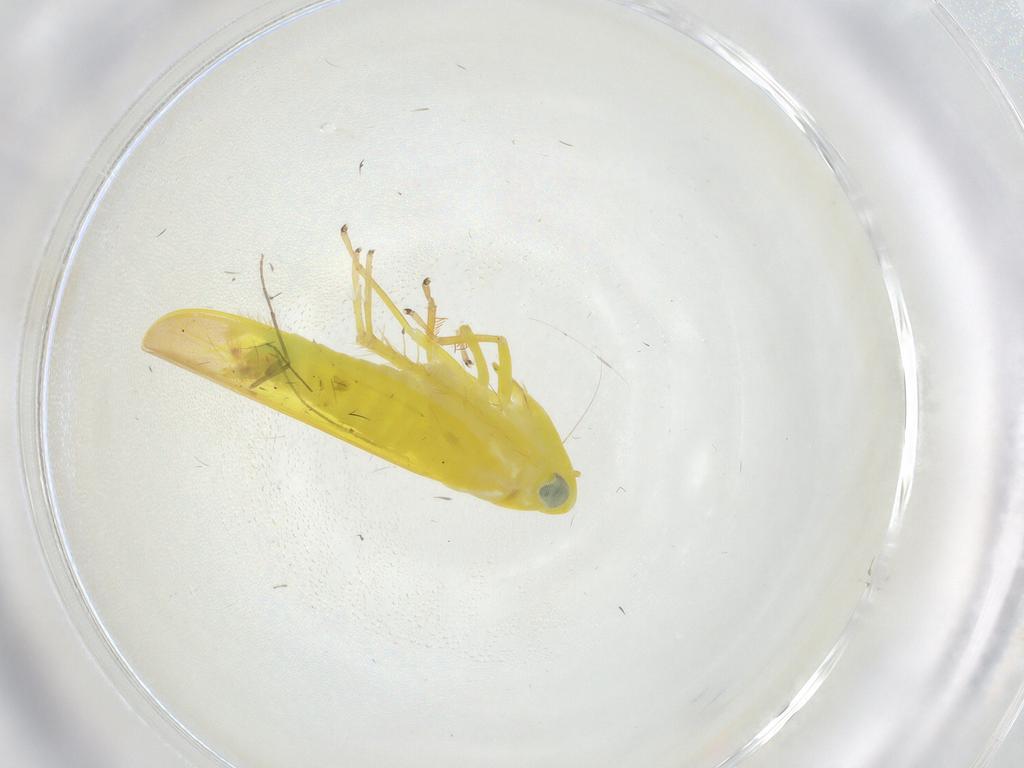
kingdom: Animalia
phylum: Arthropoda
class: Insecta
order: Hemiptera
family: Cicadellidae
